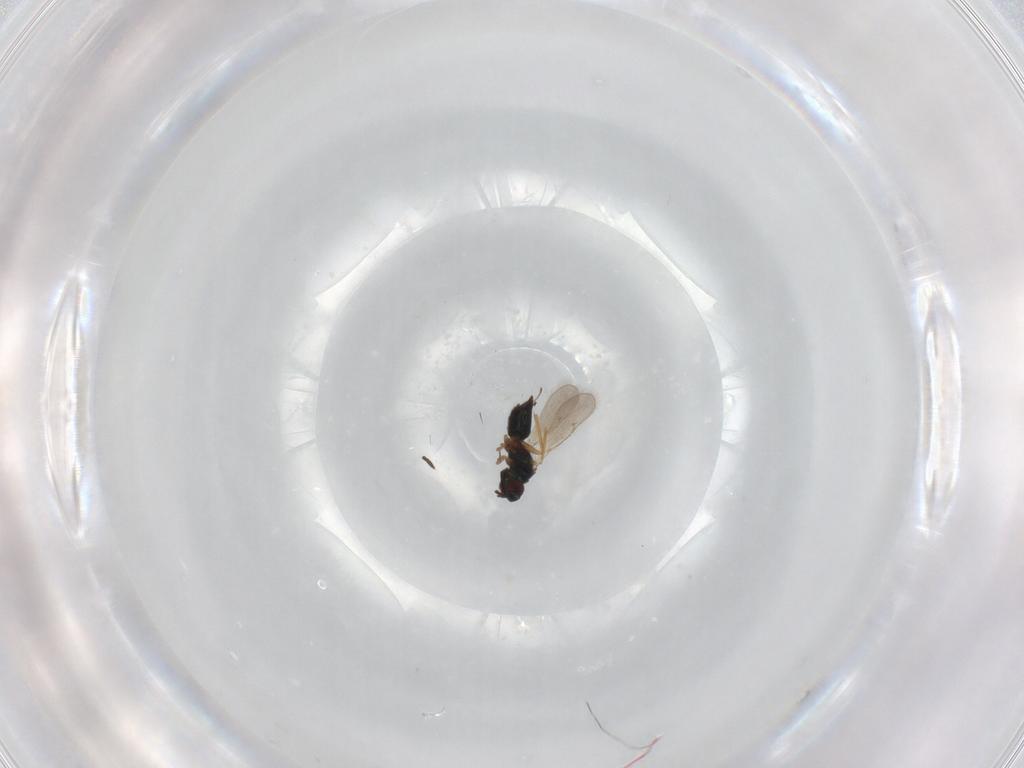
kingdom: Animalia
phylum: Arthropoda
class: Insecta
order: Hymenoptera
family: Tetracampidae
